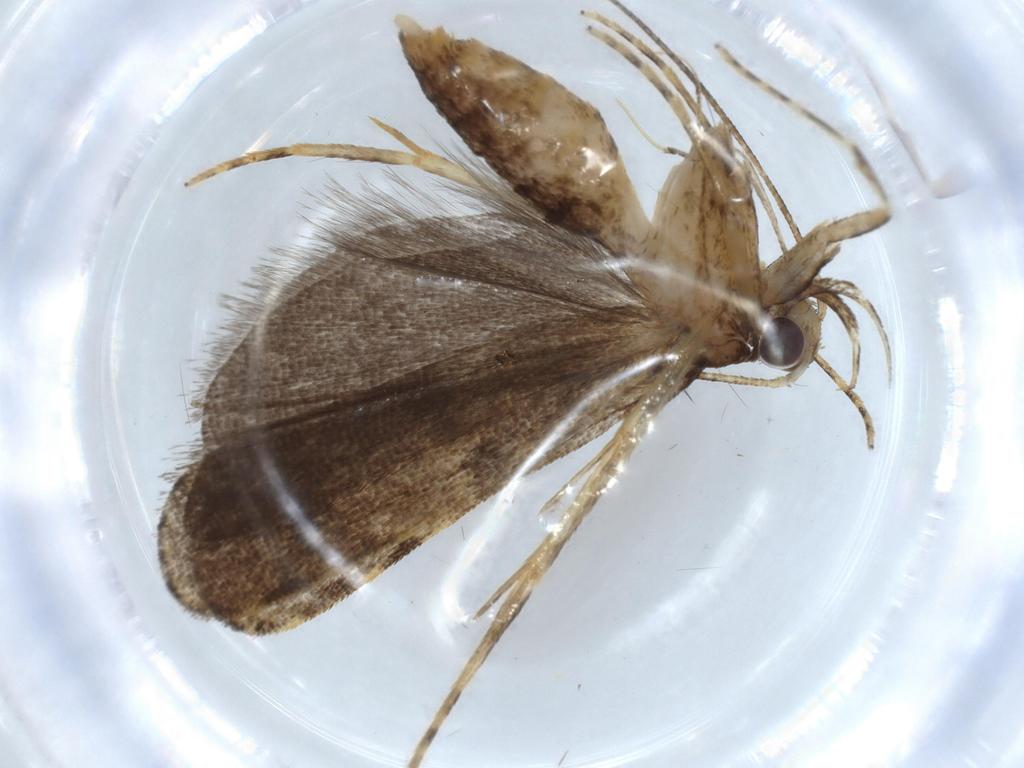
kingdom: Animalia
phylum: Arthropoda
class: Insecta
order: Lepidoptera
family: Autostichidae
